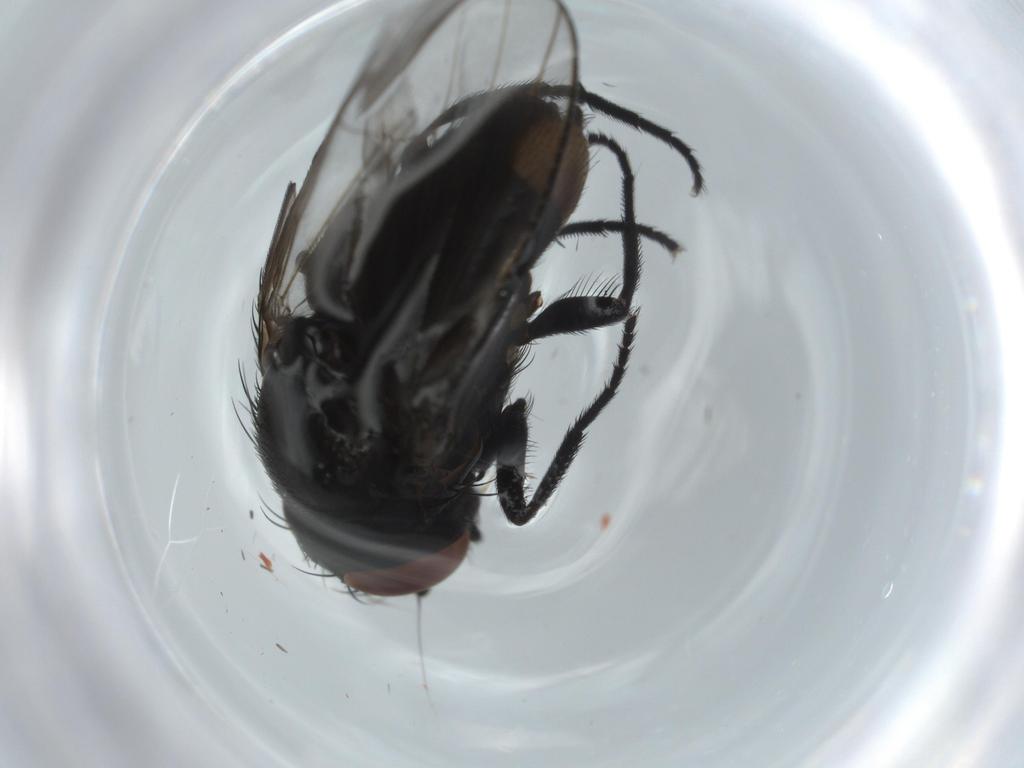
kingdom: Animalia
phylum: Arthropoda
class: Insecta
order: Diptera
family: Milichiidae
